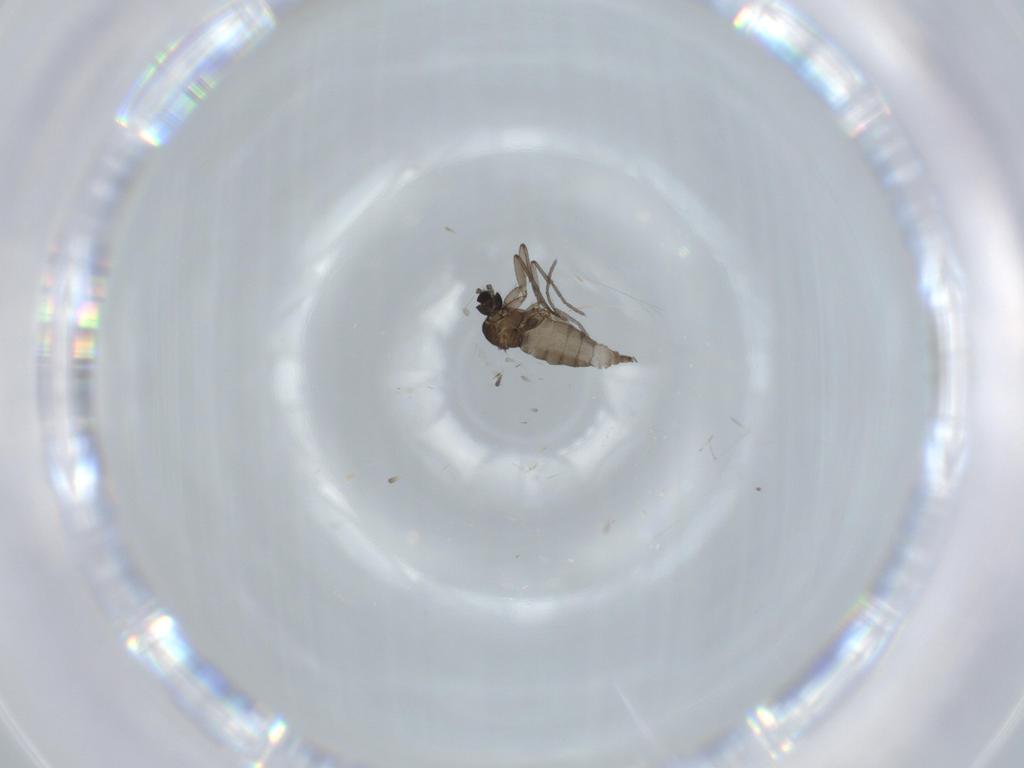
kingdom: Animalia
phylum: Arthropoda
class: Insecta
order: Diptera
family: Sciaridae
